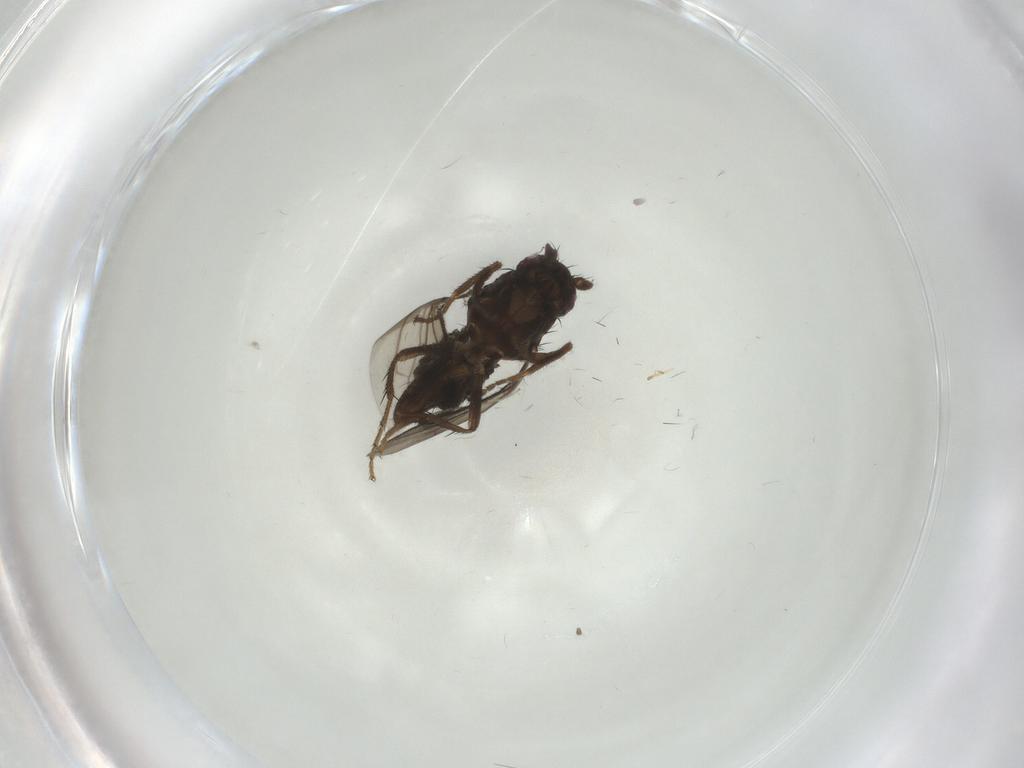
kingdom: Animalia
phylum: Arthropoda
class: Insecta
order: Diptera
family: Sphaeroceridae
